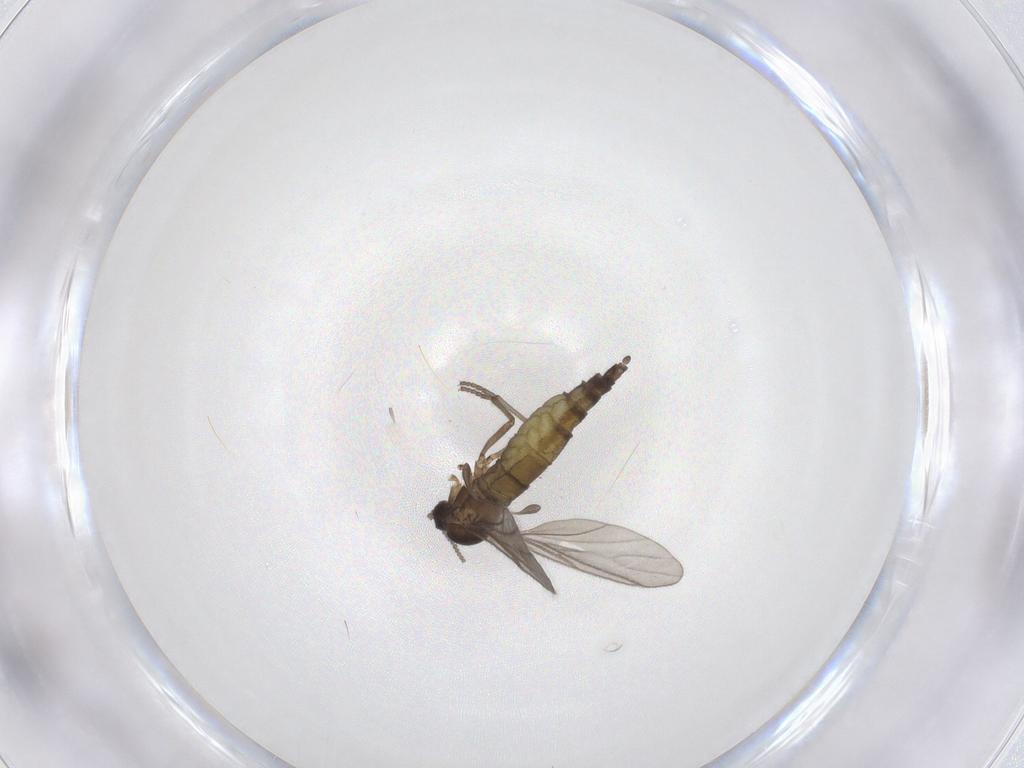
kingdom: Animalia
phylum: Arthropoda
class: Insecta
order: Diptera
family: Sciaridae
